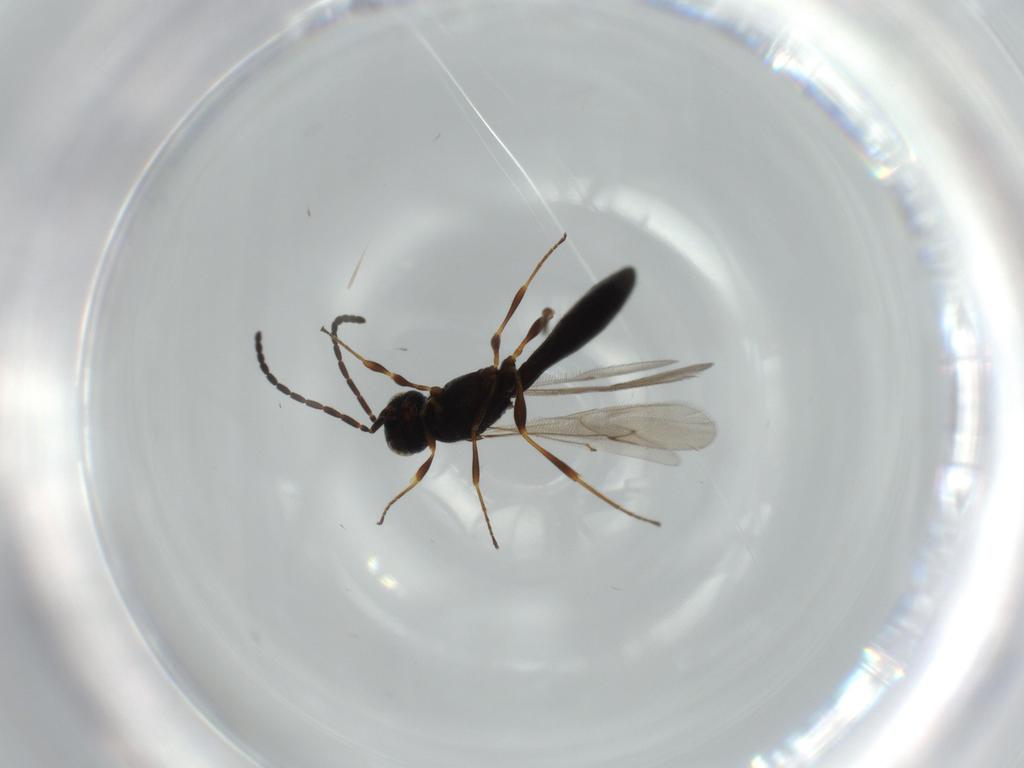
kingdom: Animalia
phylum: Arthropoda
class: Insecta
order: Hymenoptera
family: Scelionidae
